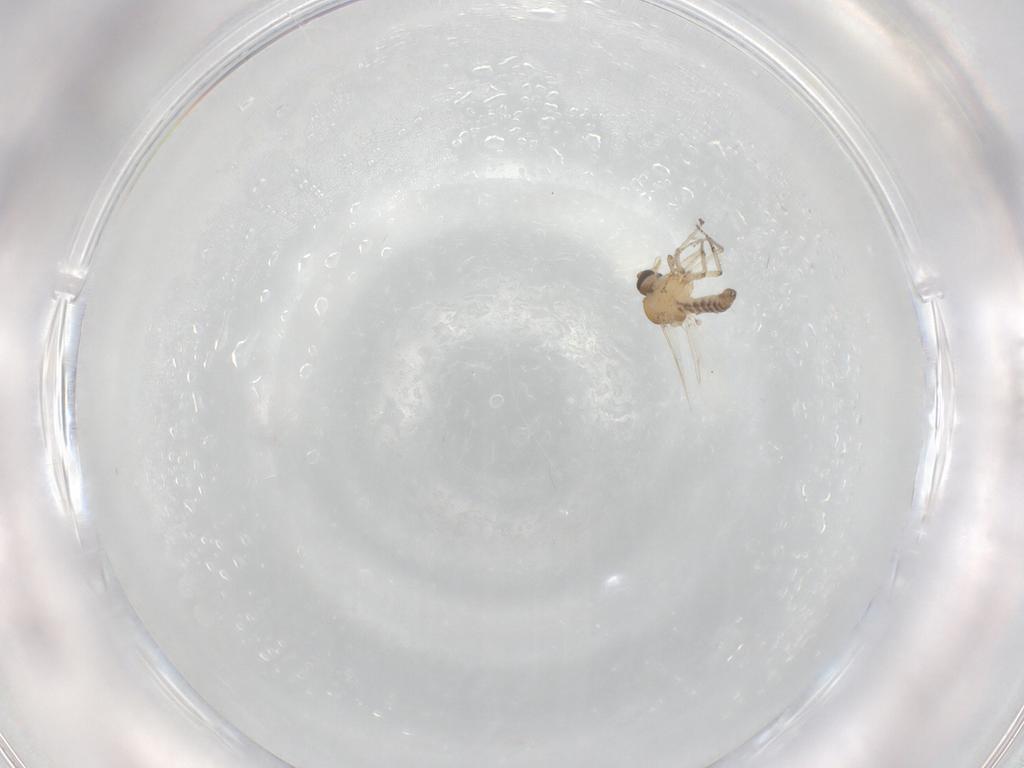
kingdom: Animalia
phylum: Arthropoda
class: Insecta
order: Diptera
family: Ceratopogonidae
